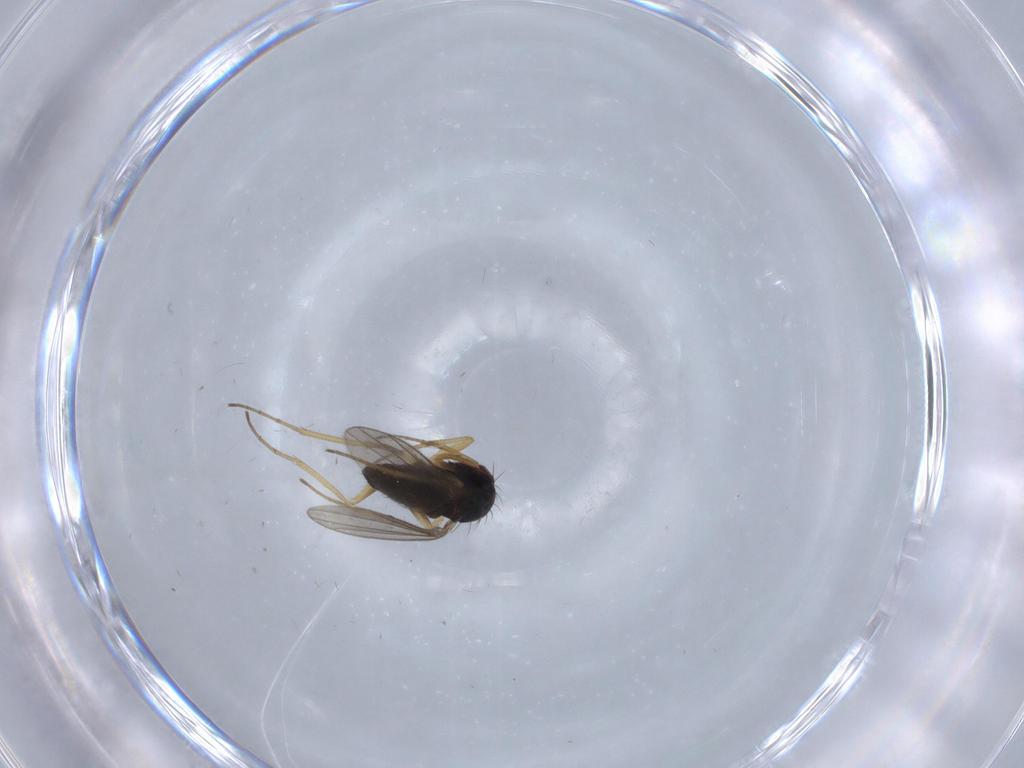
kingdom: Animalia
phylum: Arthropoda
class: Insecta
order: Diptera
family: Dolichopodidae
